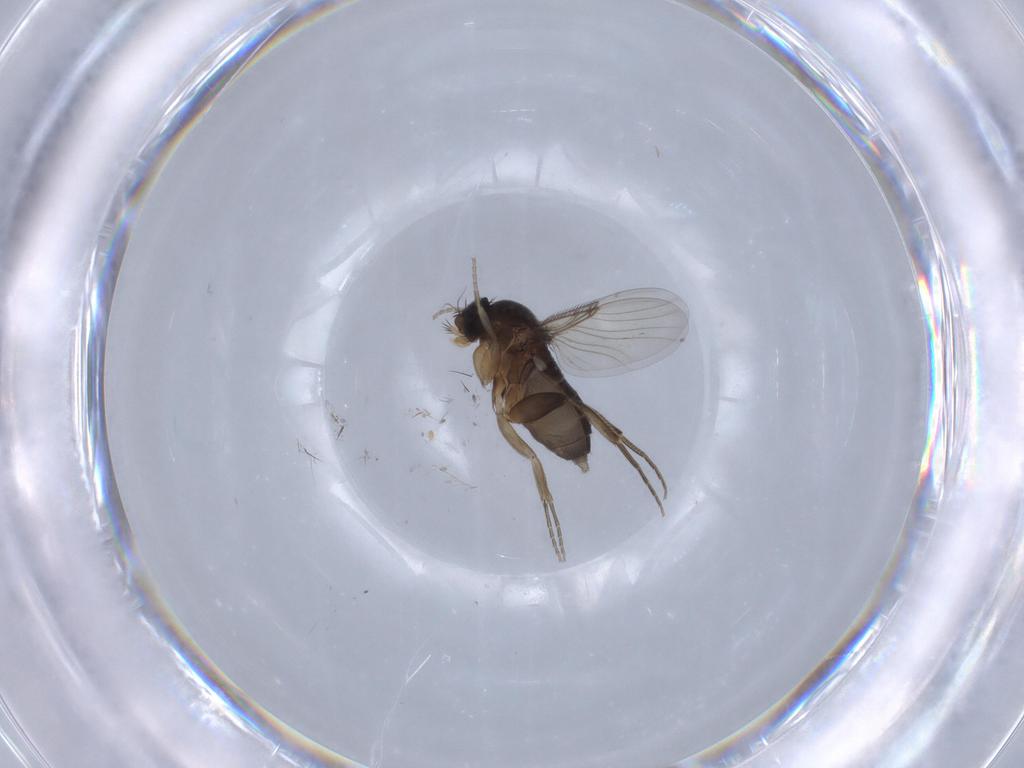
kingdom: Animalia
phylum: Arthropoda
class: Insecta
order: Diptera
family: Phoridae
